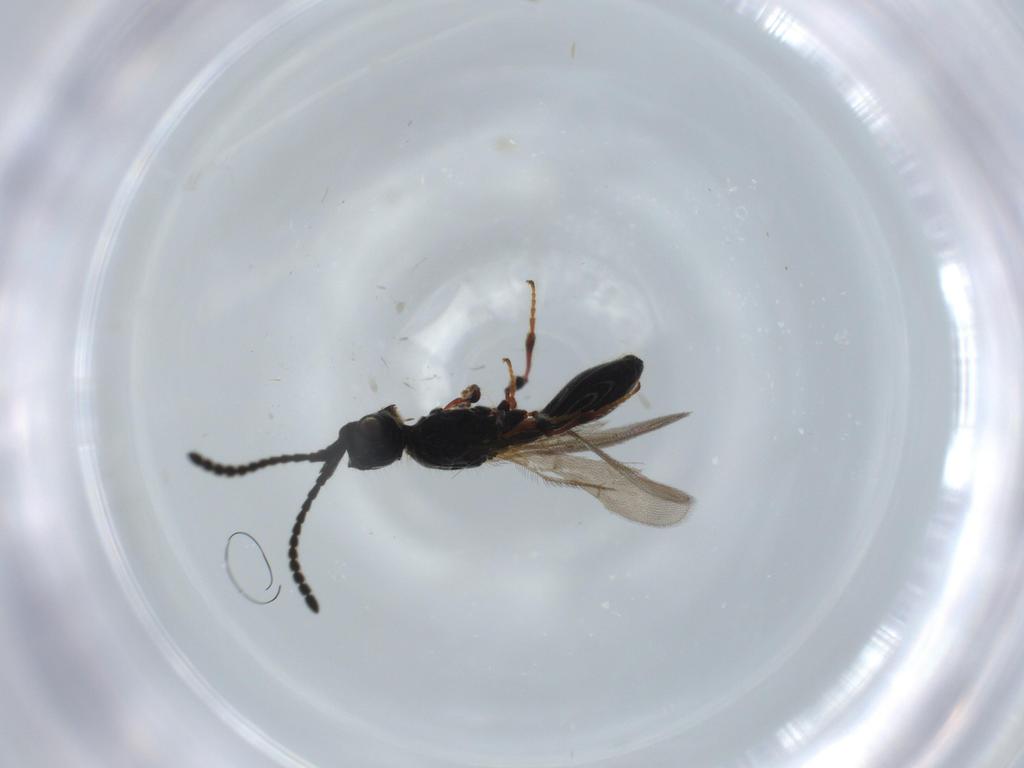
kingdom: Animalia
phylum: Arthropoda
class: Insecta
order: Hymenoptera
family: Diapriidae
